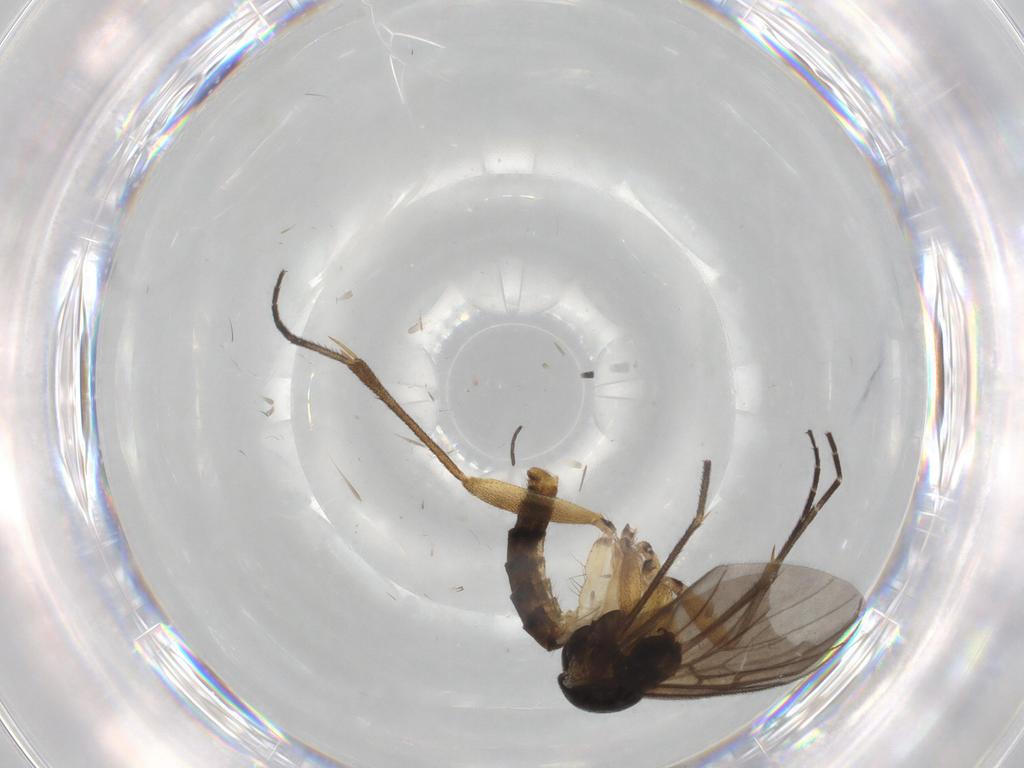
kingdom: Animalia
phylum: Arthropoda
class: Insecta
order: Diptera
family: Sciaridae
